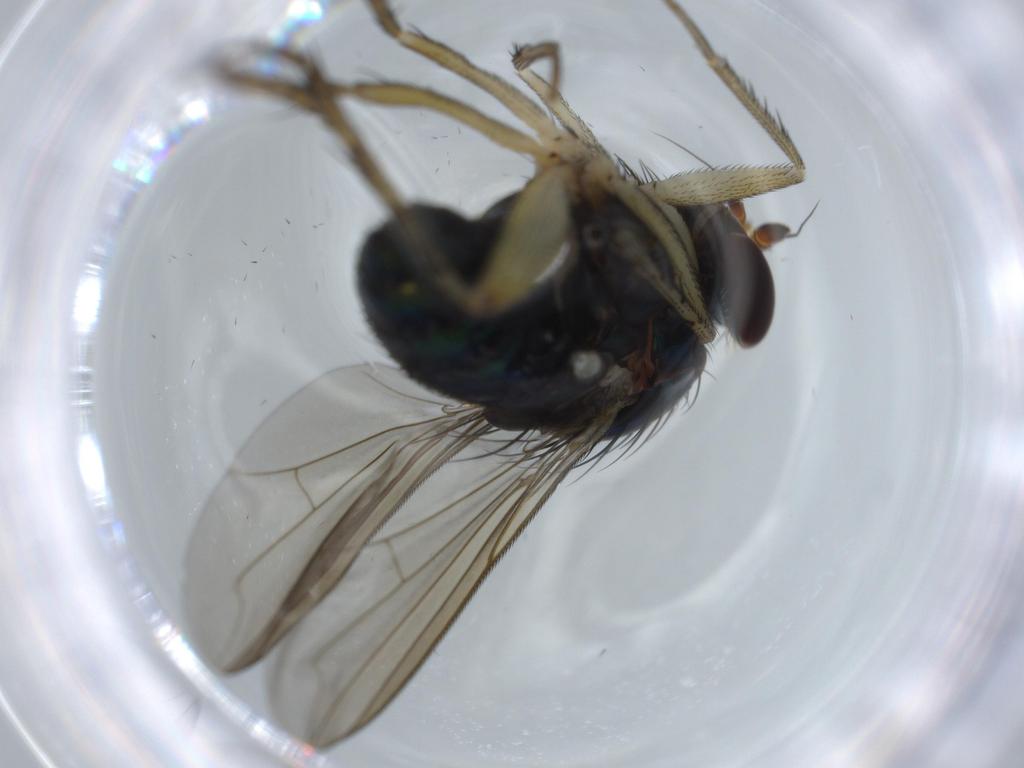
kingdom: Animalia
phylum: Arthropoda
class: Insecta
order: Diptera
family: Dolichopodidae
